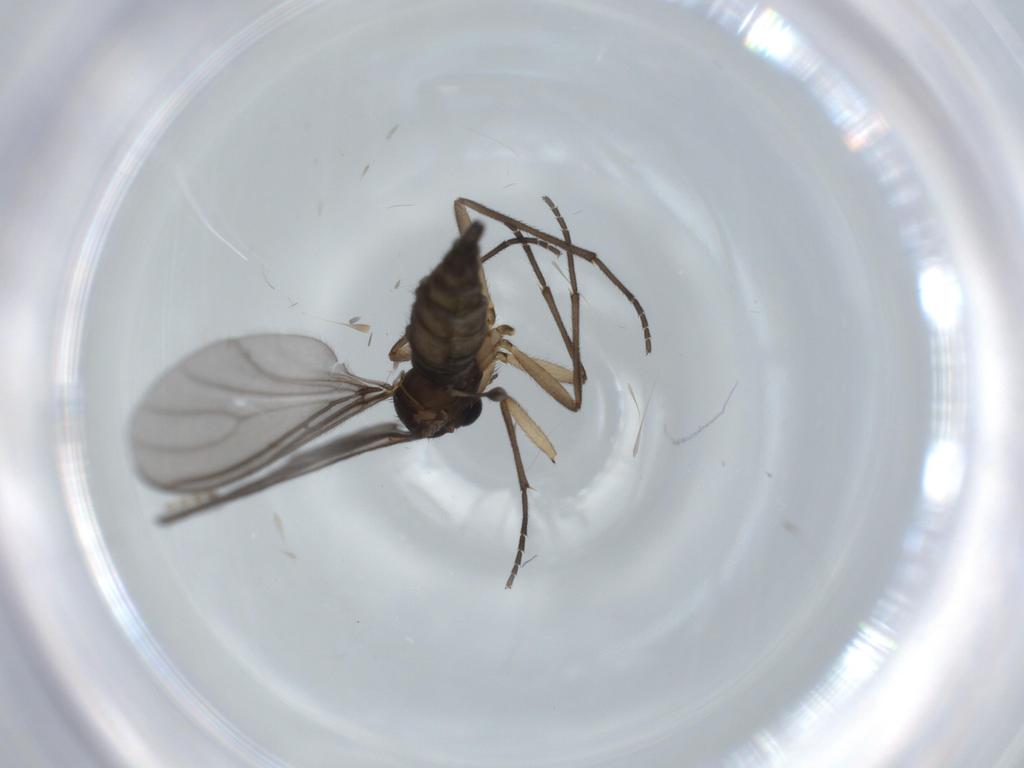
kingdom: Animalia
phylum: Arthropoda
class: Insecta
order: Diptera
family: Sciaridae
